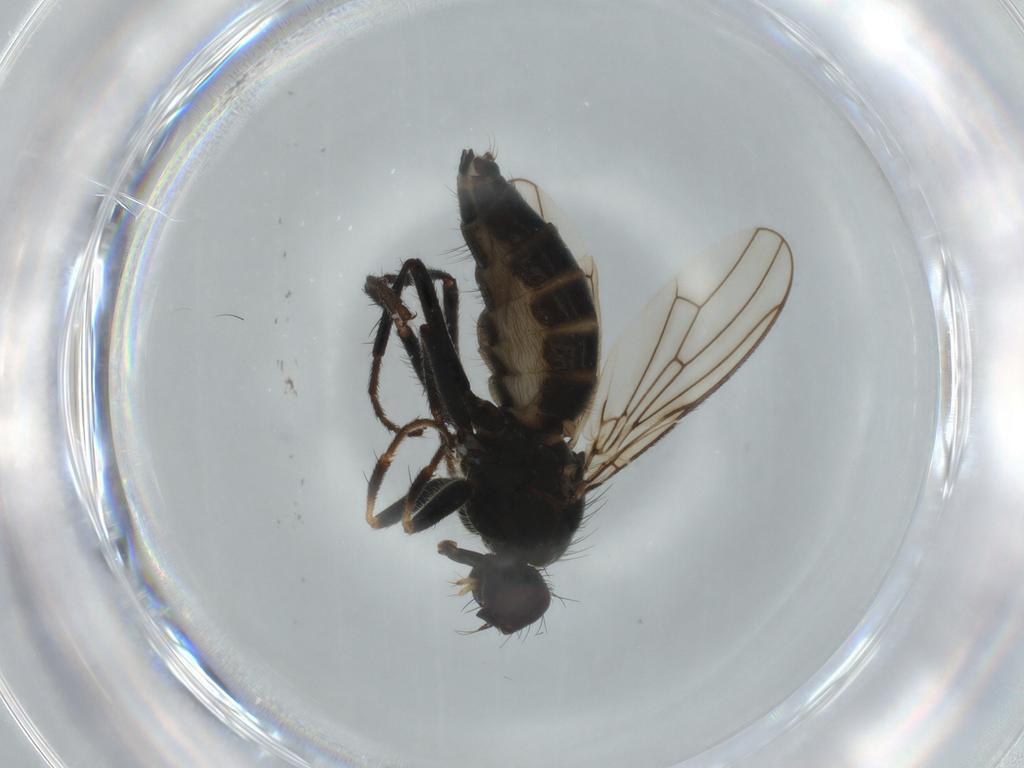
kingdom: Animalia
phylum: Arthropoda
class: Insecta
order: Diptera
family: Scathophagidae
